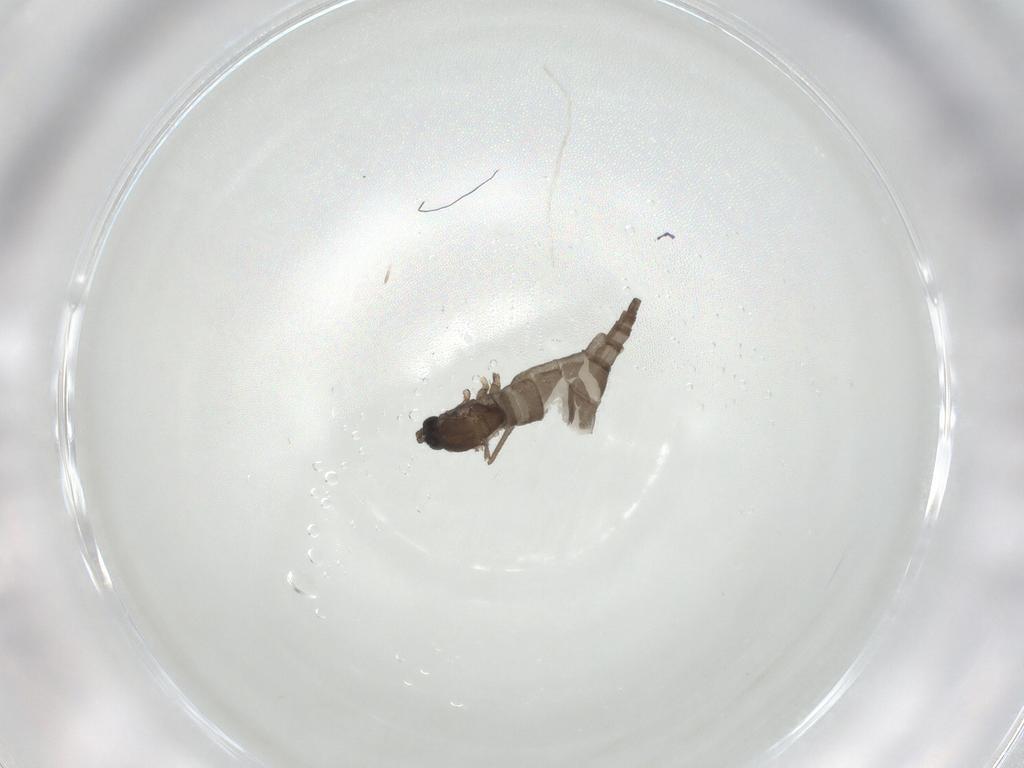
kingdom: Animalia
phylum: Arthropoda
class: Insecta
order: Diptera
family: Sciaridae
